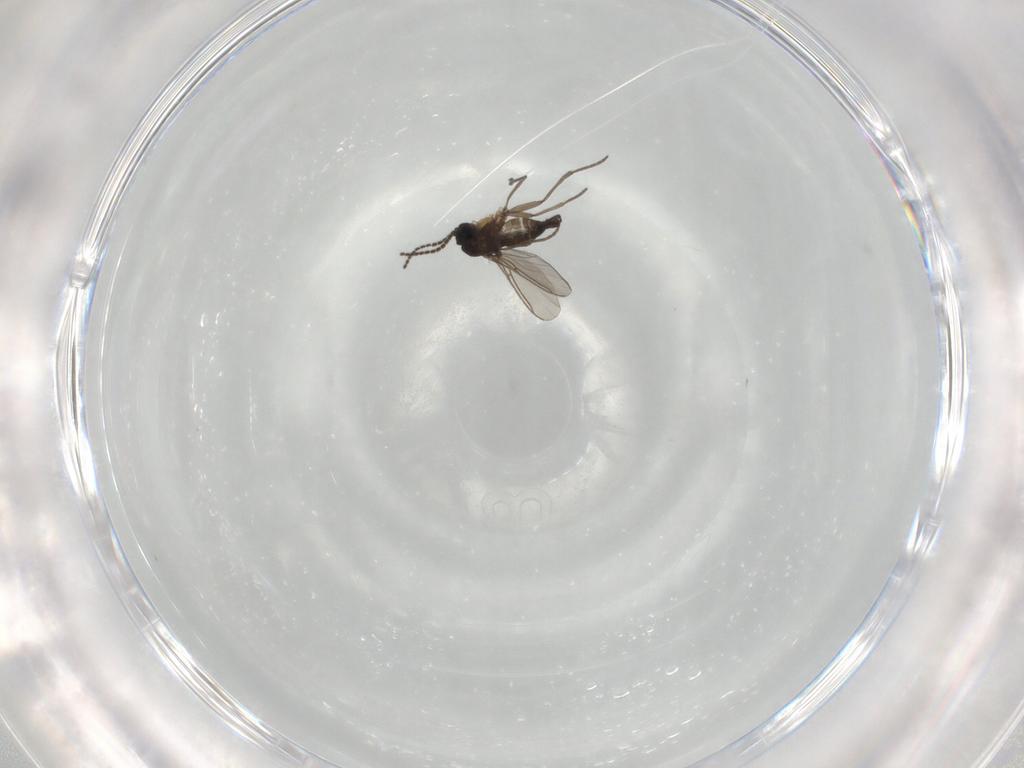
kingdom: Animalia
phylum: Arthropoda
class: Insecta
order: Diptera
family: Sciaridae
